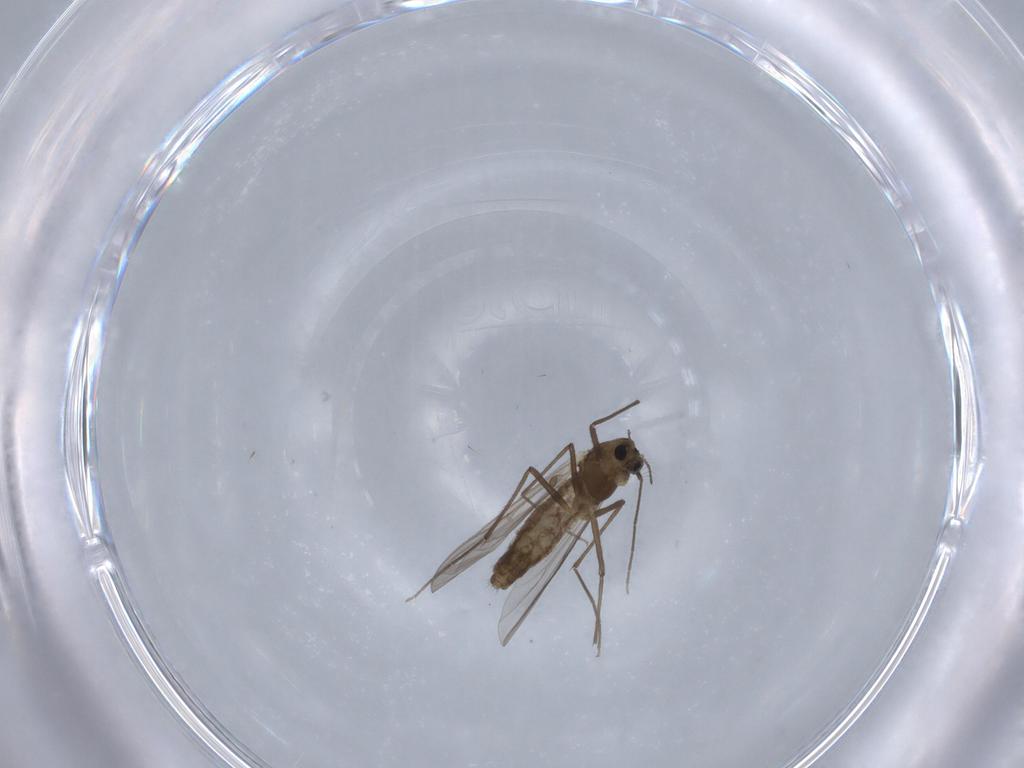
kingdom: Animalia
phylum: Arthropoda
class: Insecta
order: Diptera
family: Chironomidae
